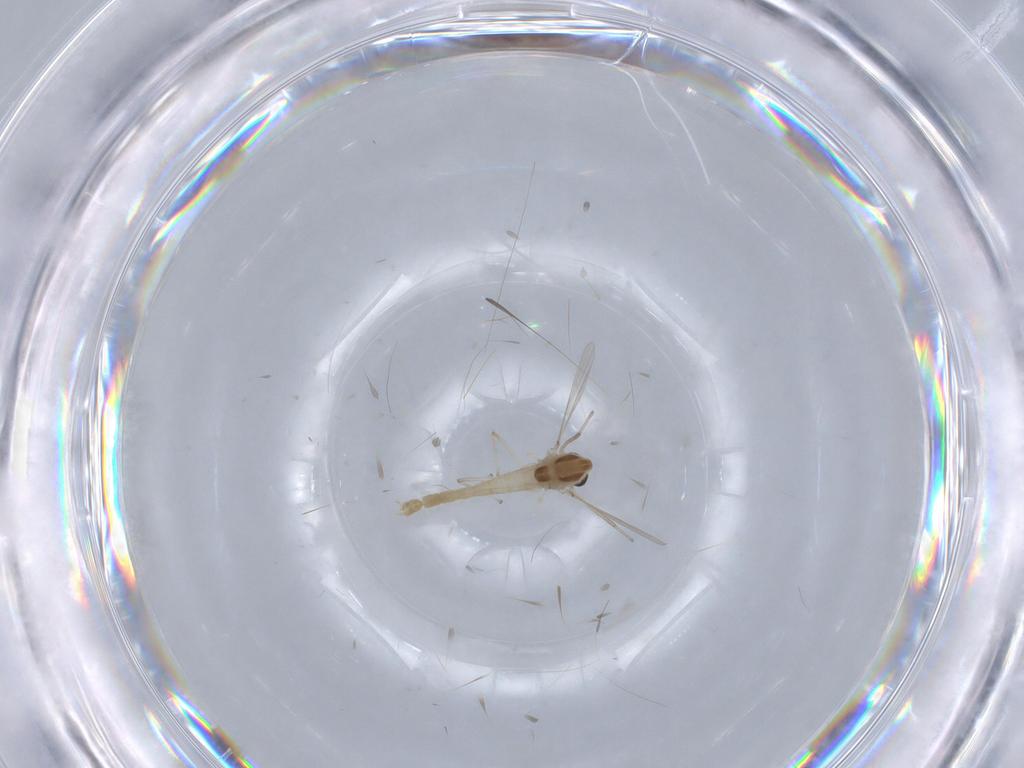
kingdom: Animalia
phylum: Arthropoda
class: Insecta
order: Diptera
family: Chironomidae
